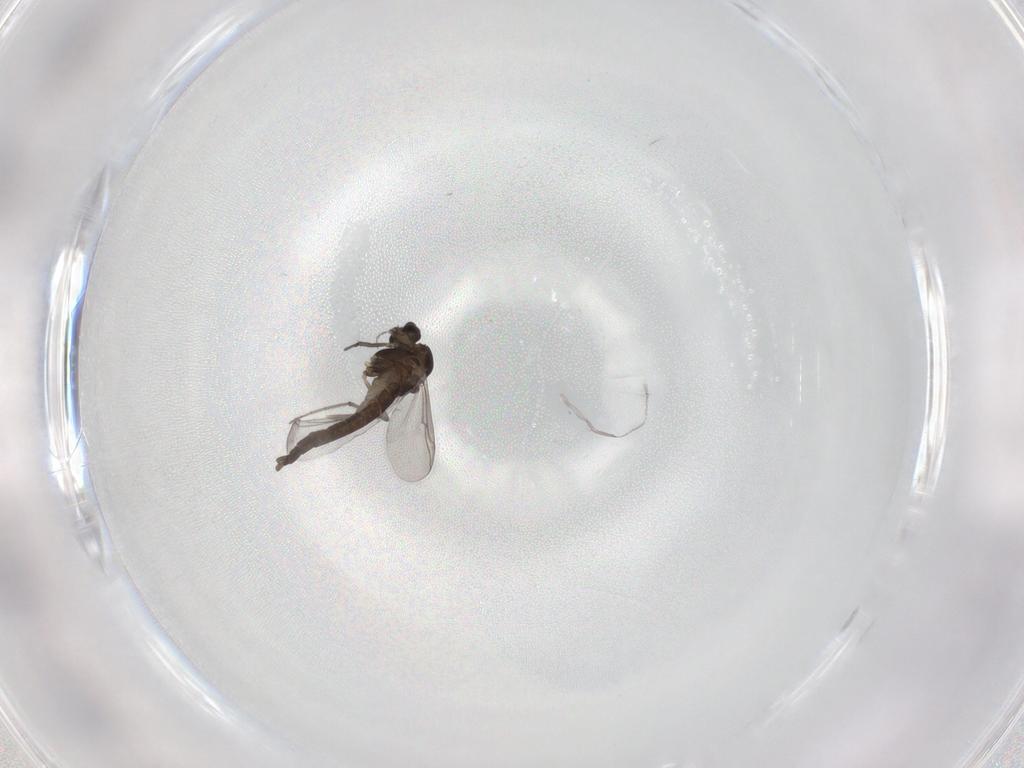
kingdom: Animalia
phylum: Arthropoda
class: Insecta
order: Diptera
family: Chironomidae
